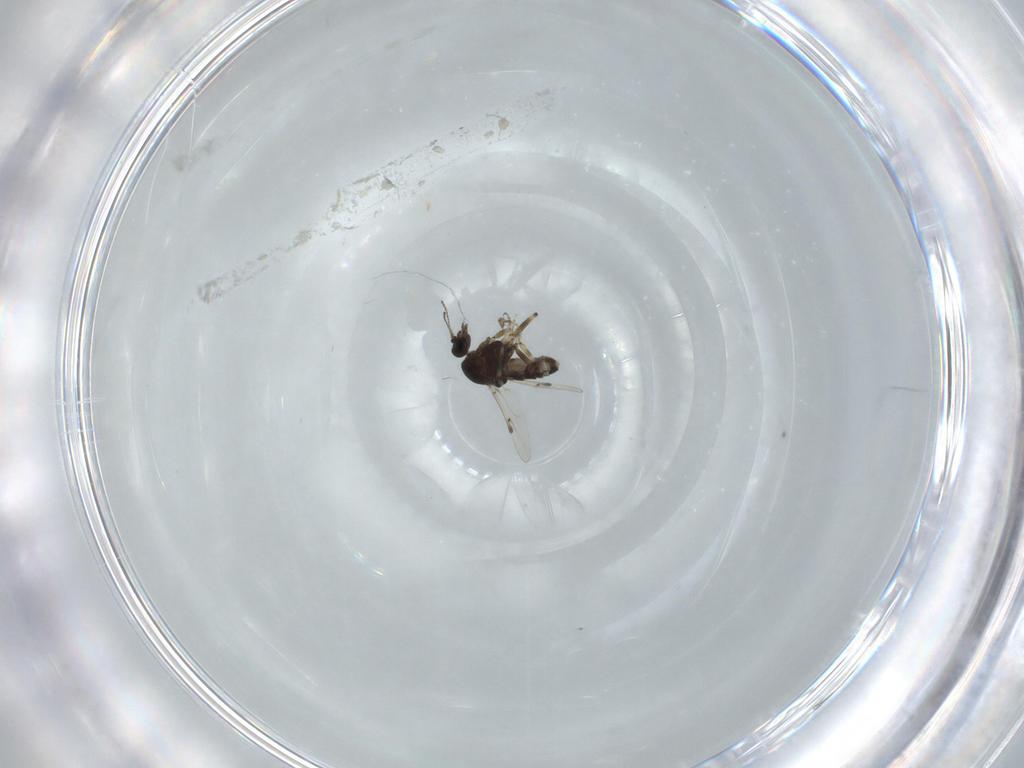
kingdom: Animalia
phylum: Arthropoda
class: Insecta
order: Diptera
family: Ceratopogonidae
